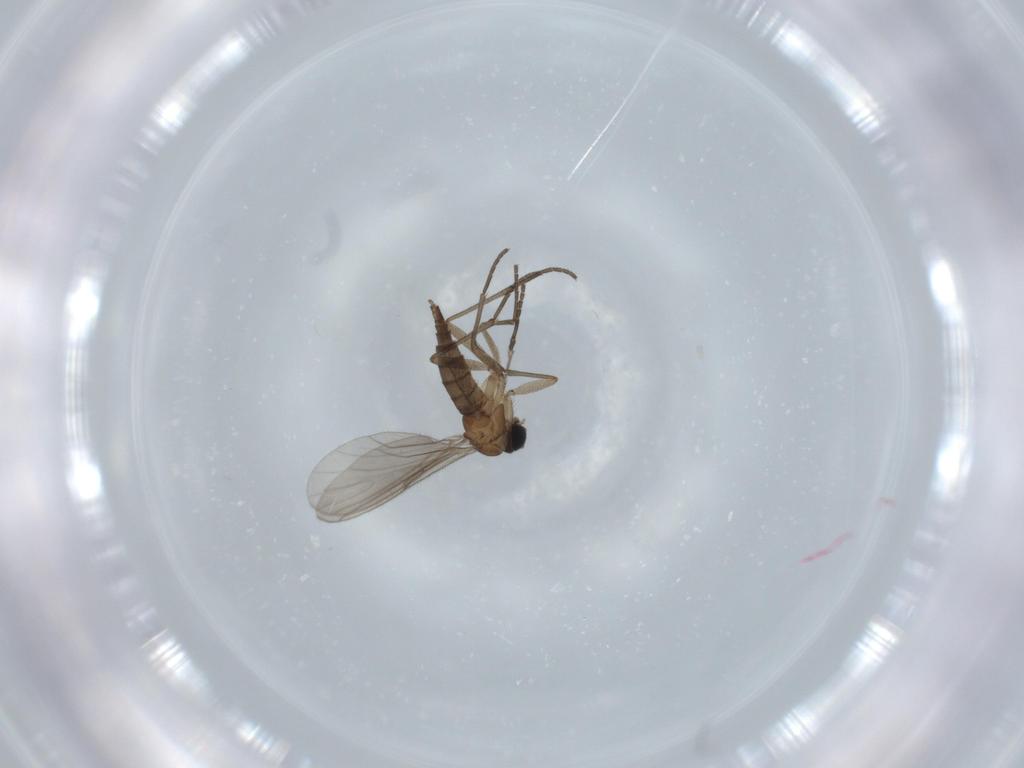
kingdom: Animalia
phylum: Arthropoda
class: Insecta
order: Diptera
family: Sciaridae
